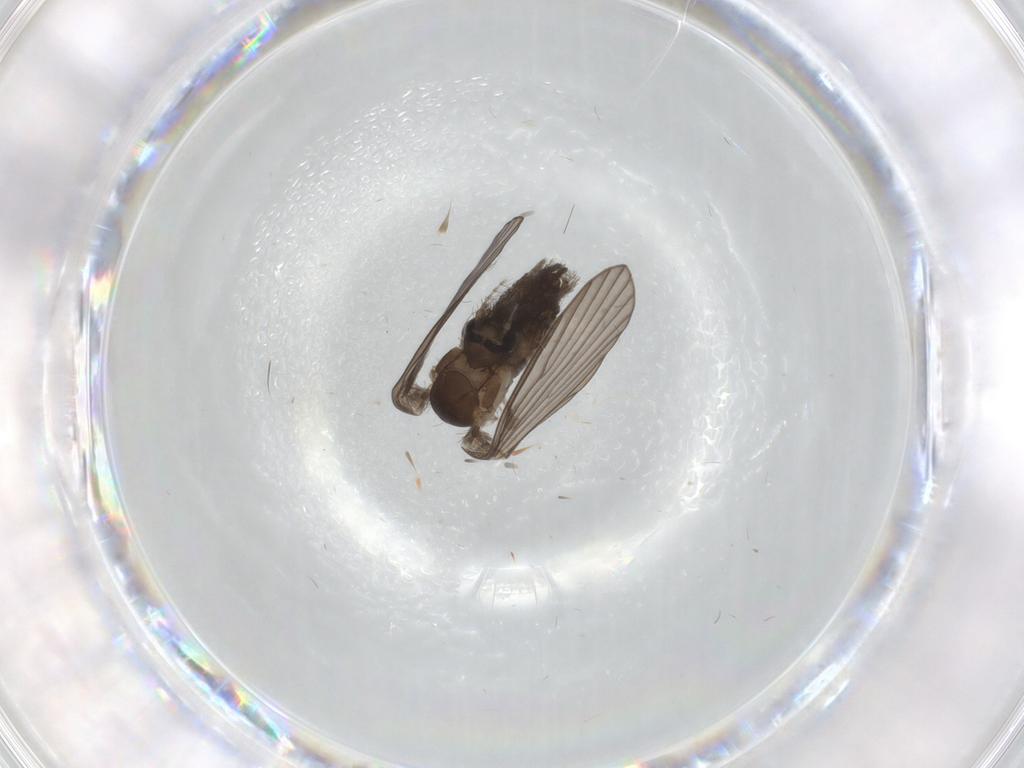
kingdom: Animalia
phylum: Arthropoda
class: Insecta
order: Diptera
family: Psychodidae
